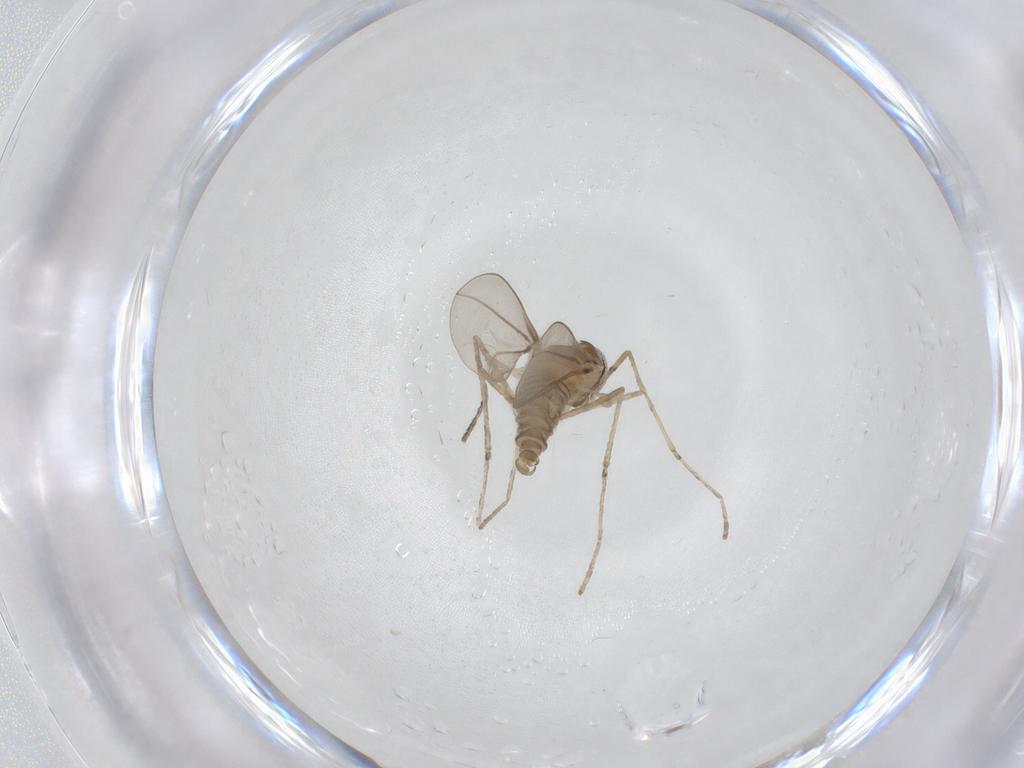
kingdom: Animalia
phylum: Arthropoda
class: Insecta
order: Diptera
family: Cecidomyiidae
